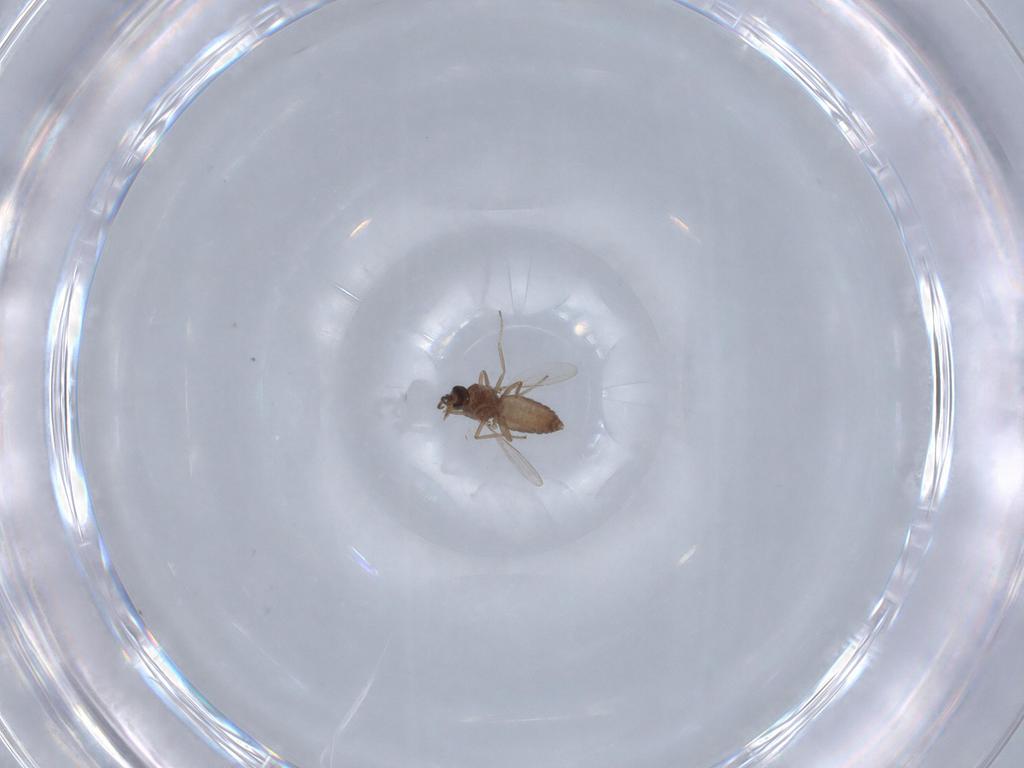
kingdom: Animalia
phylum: Arthropoda
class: Insecta
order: Diptera
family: Ceratopogonidae
